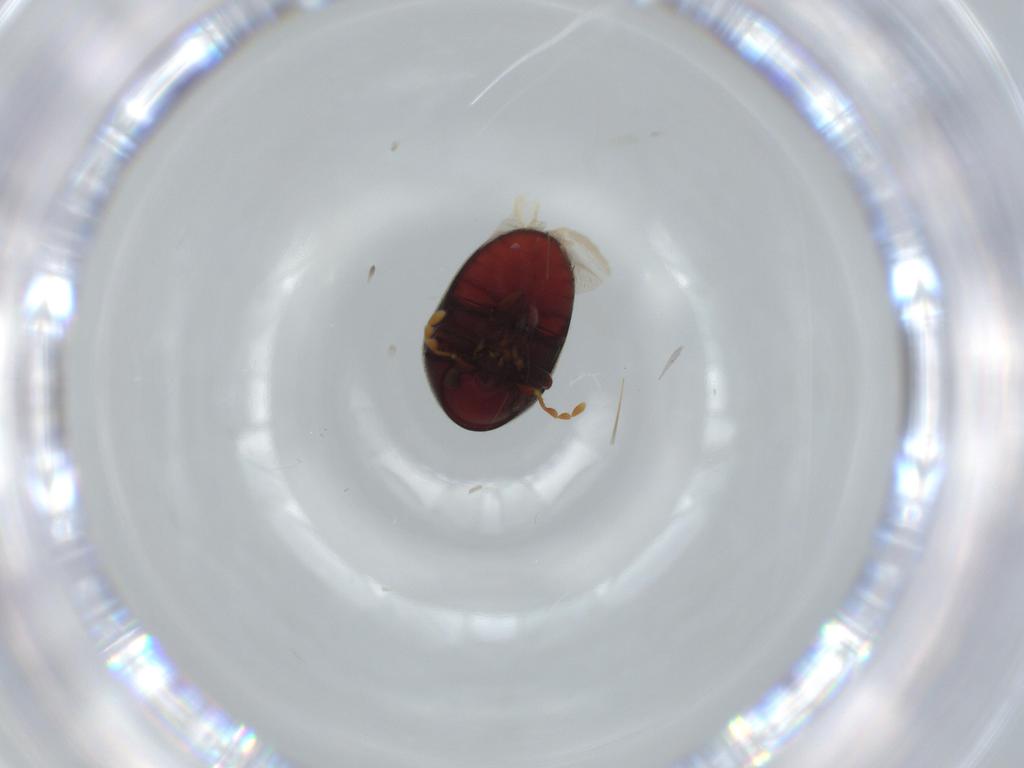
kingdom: Animalia
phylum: Arthropoda
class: Insecta
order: Coleoptera
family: Ptinidae
